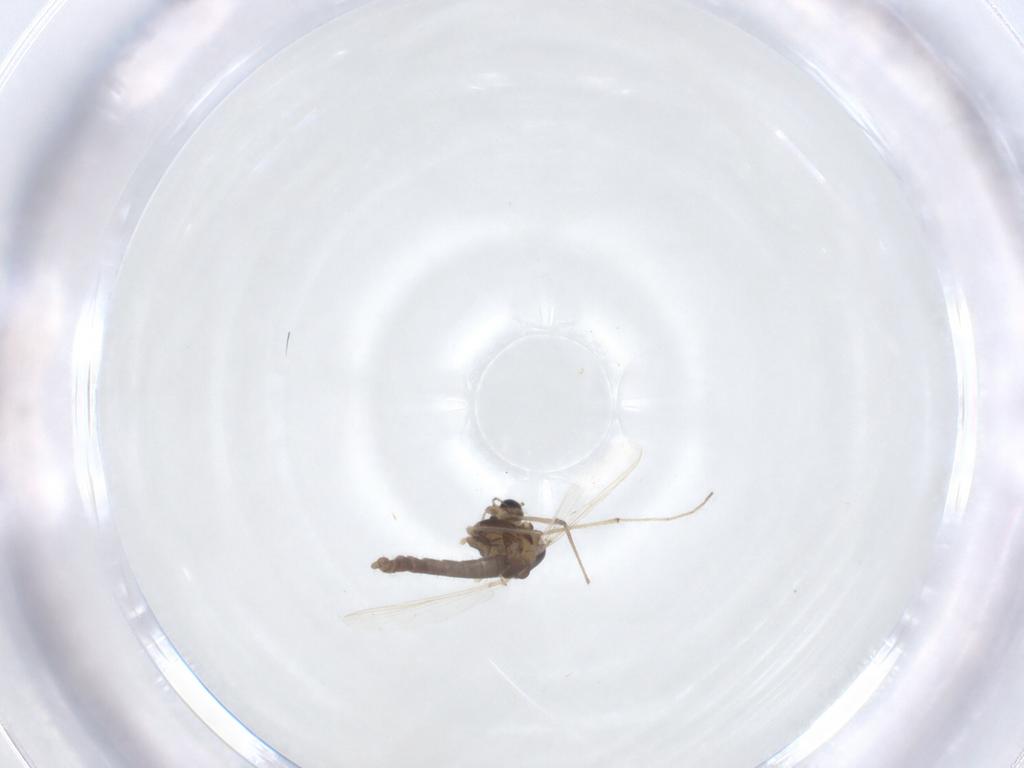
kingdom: Animalia
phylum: Arthropoda
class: Insecta
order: Diptera
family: Chironomidae
